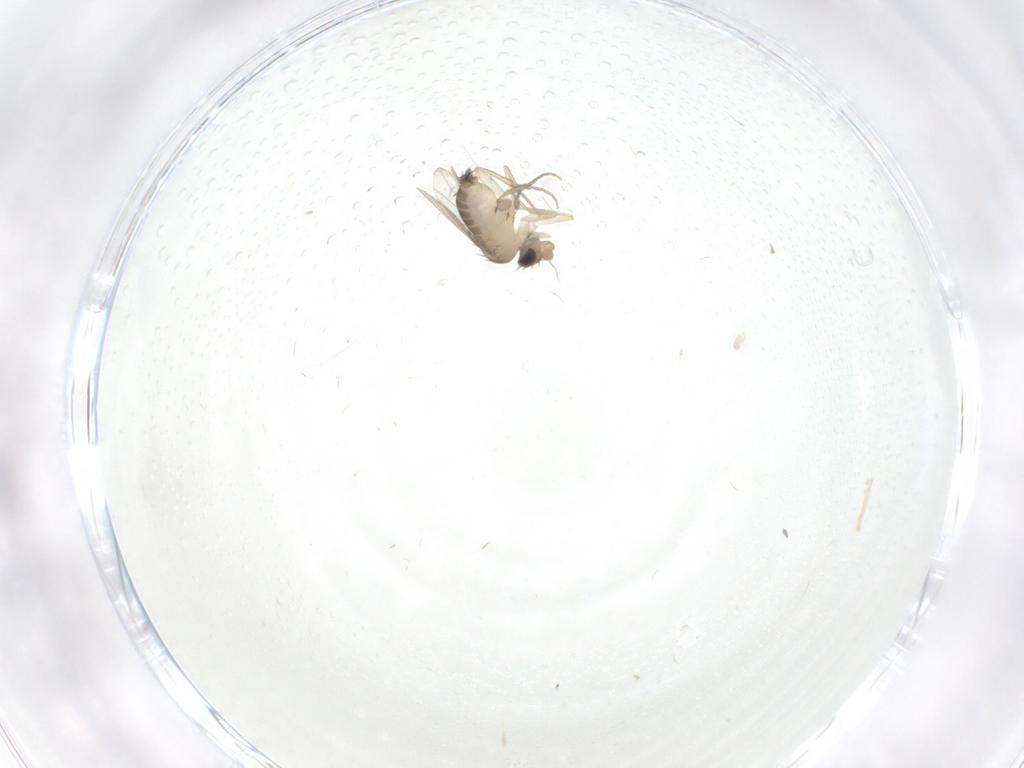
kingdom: Animalia
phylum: Arthropoda
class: Insecta
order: Diptera
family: Phoridae
